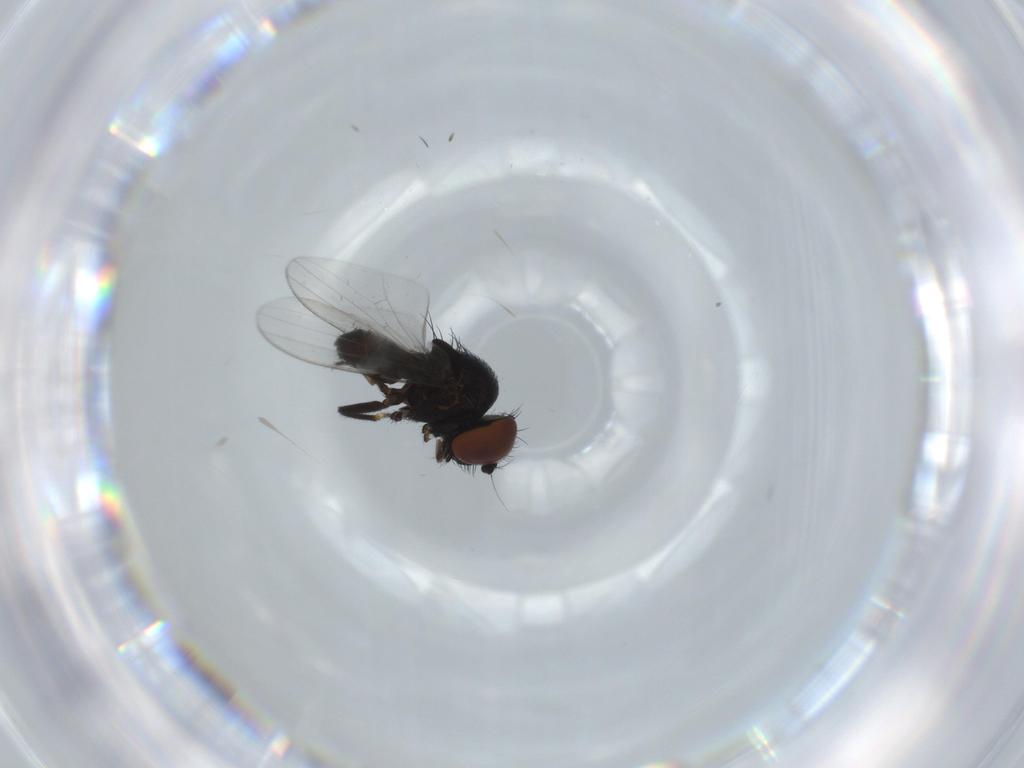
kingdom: Animalia
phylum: Arthropoda
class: Insecta
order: Diptera
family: Milichiidae
